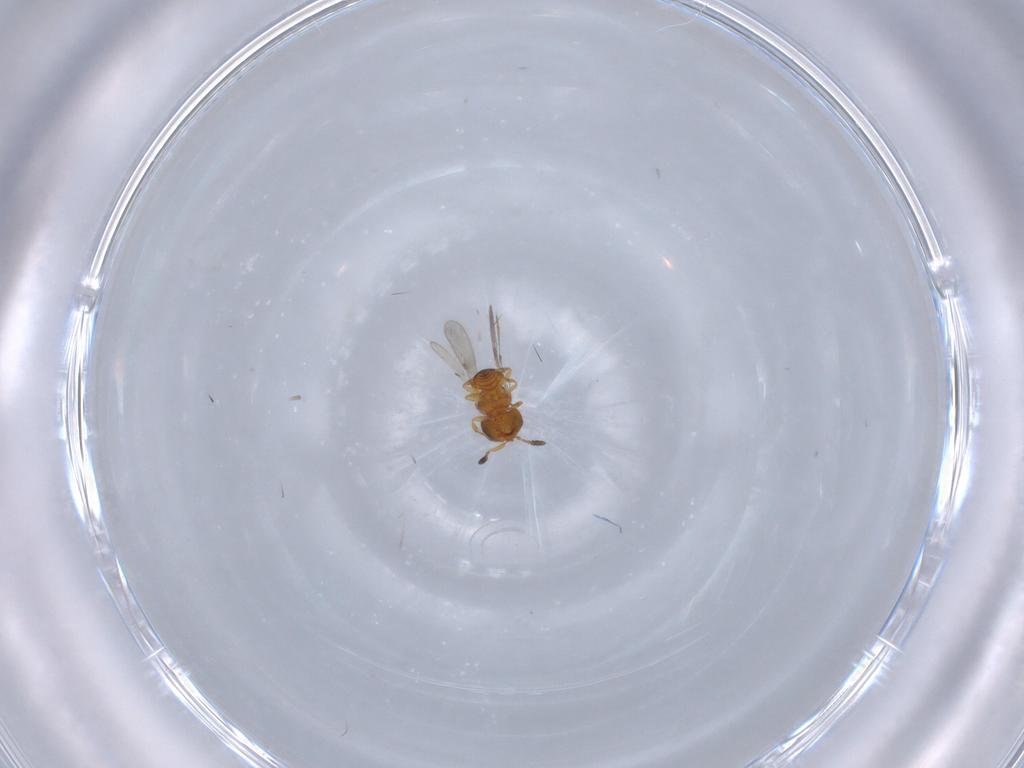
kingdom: Animalia
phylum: Arthropoda
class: Insecta
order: Hymenoptera
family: Scelionidae
